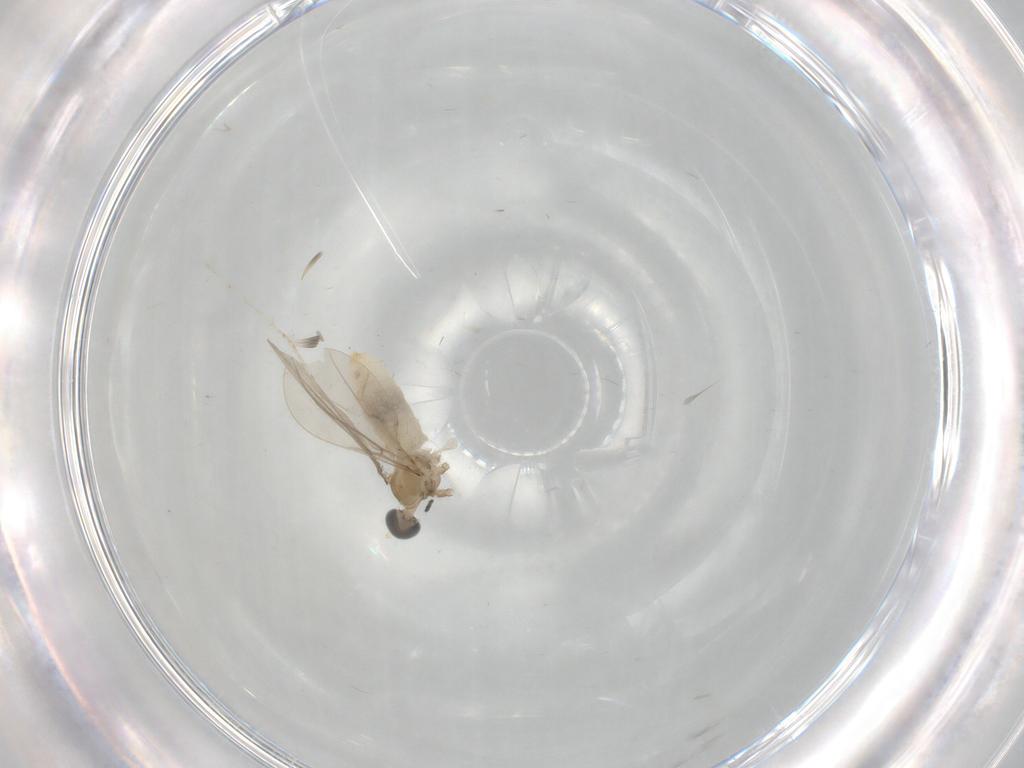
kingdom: Animalia
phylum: Arthropoda
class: Insecta
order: Diptera
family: Cecidomyiidae
